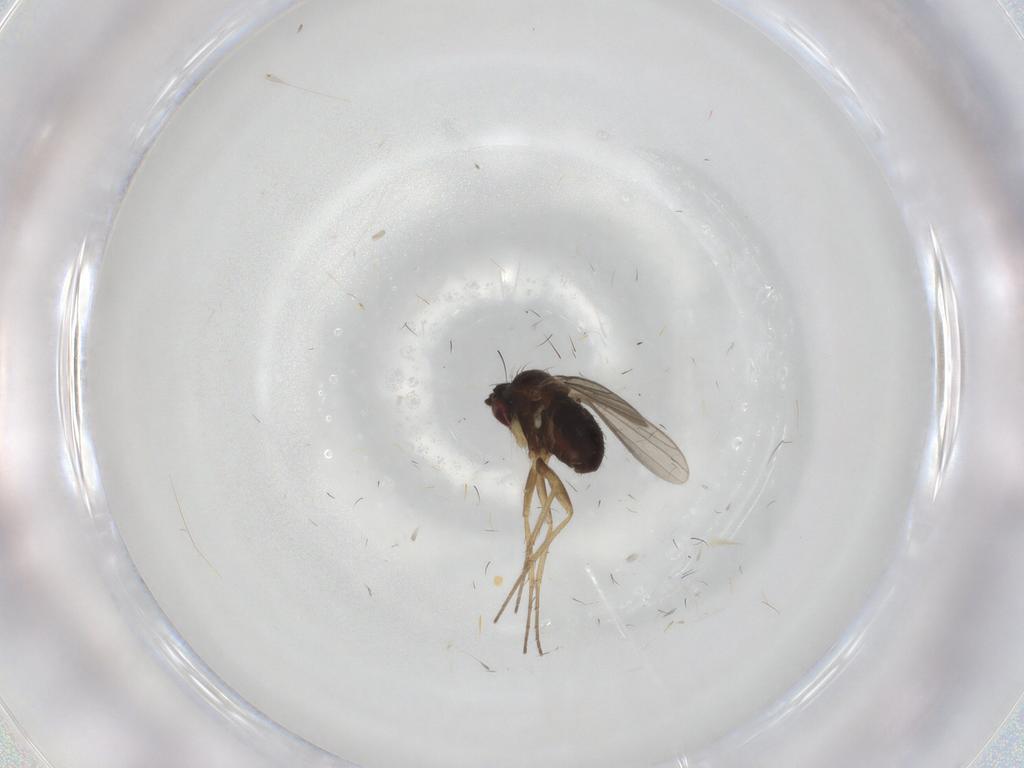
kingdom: Animalia
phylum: Arthropoda
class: Insecta
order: Diptera
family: Dolichopodidae
